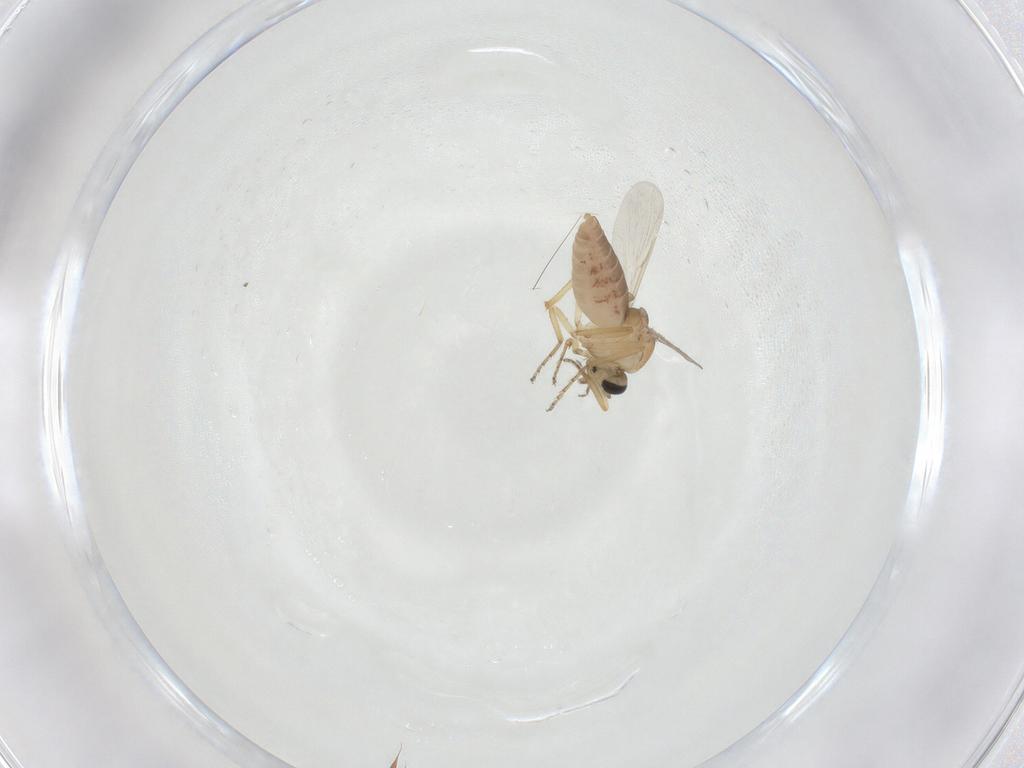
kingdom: Animalia
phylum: Arthropoda
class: Insecta
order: Diptera
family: Ceratopogonidae
